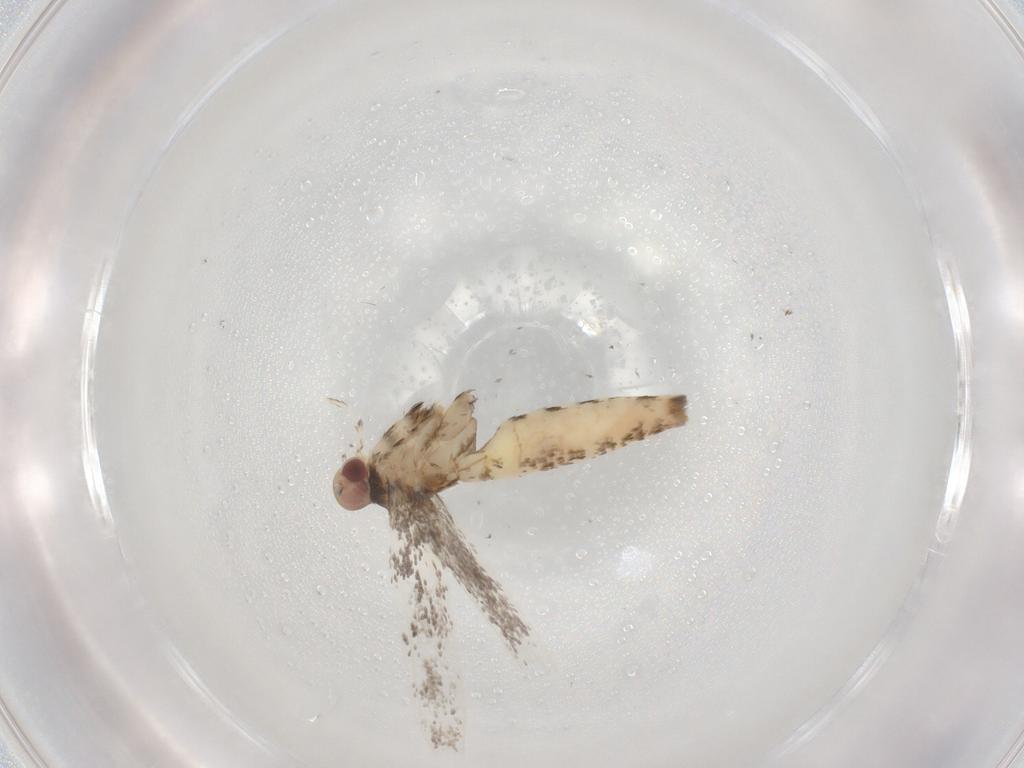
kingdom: Animalia
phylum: Arthropoda
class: Insecta
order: Lepidoptera
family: Gracillariidae
